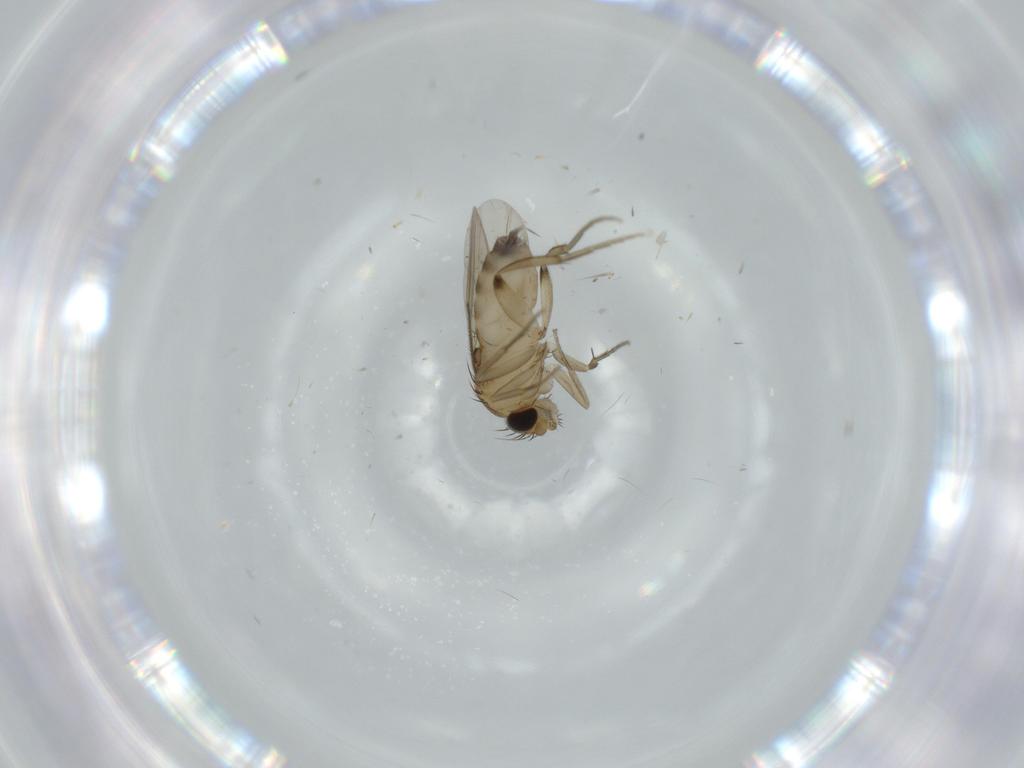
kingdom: Animalia
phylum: Arthropoda
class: Insecta
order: Diptera
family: Phoridae
